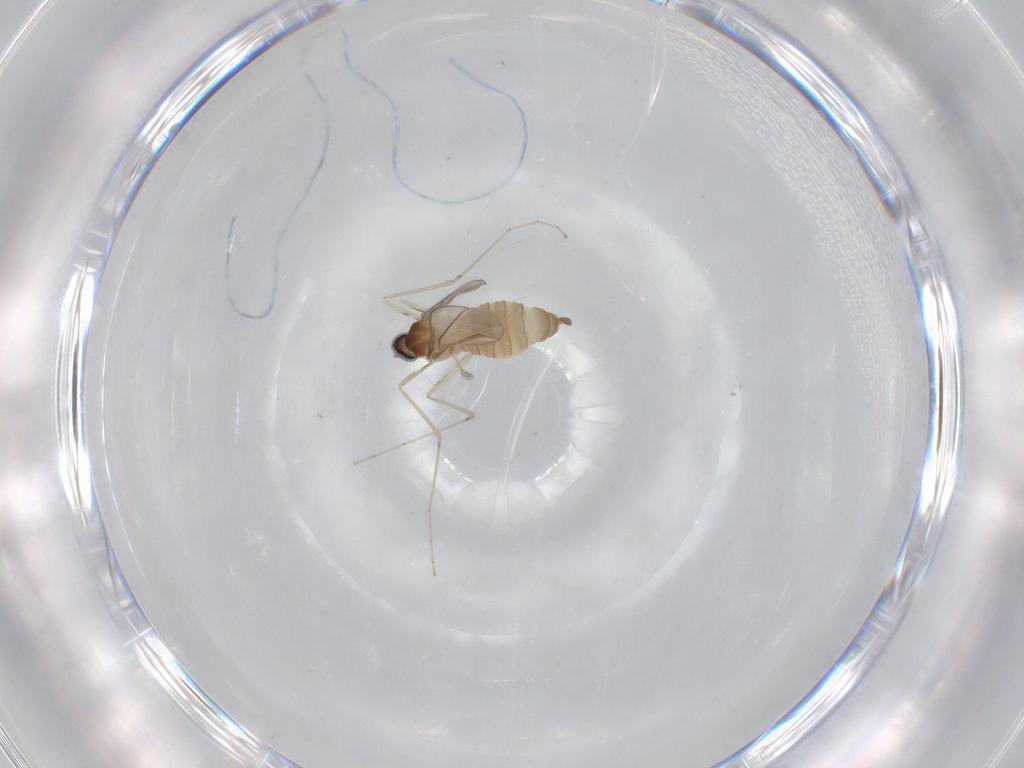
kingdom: Animalia
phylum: Arthropoda
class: Insecta
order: Diptera
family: Cecidomyiidae
